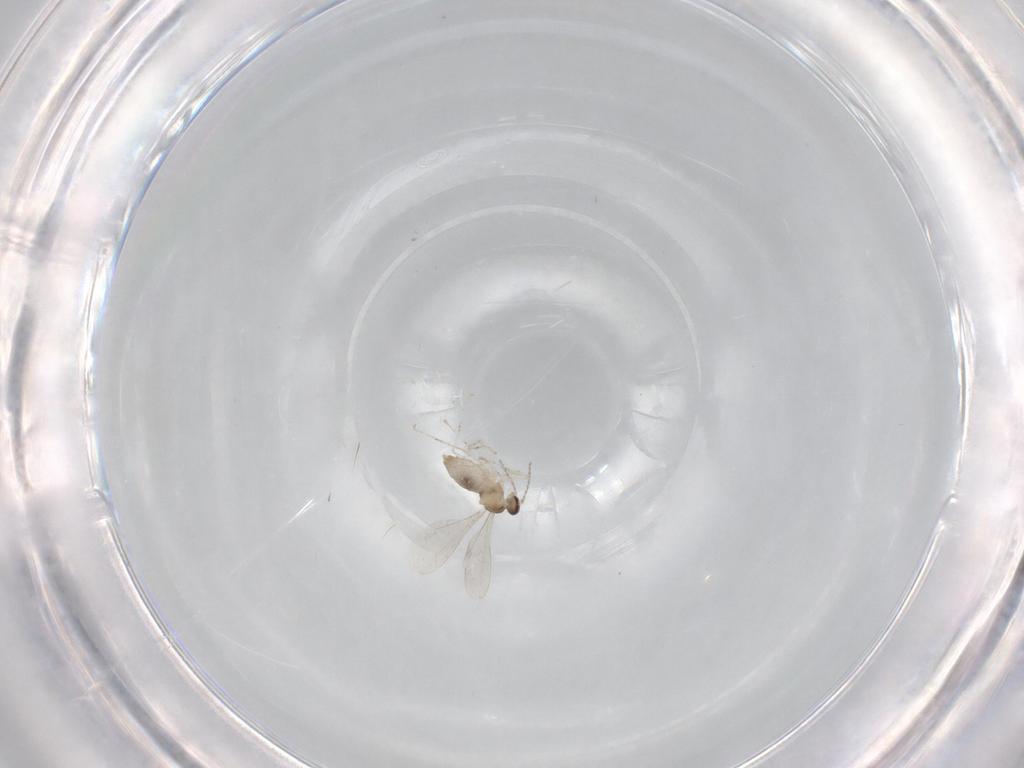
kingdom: Animalia
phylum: Arthropoda
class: Insecta
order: Diptera
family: Cecidomyiidae
